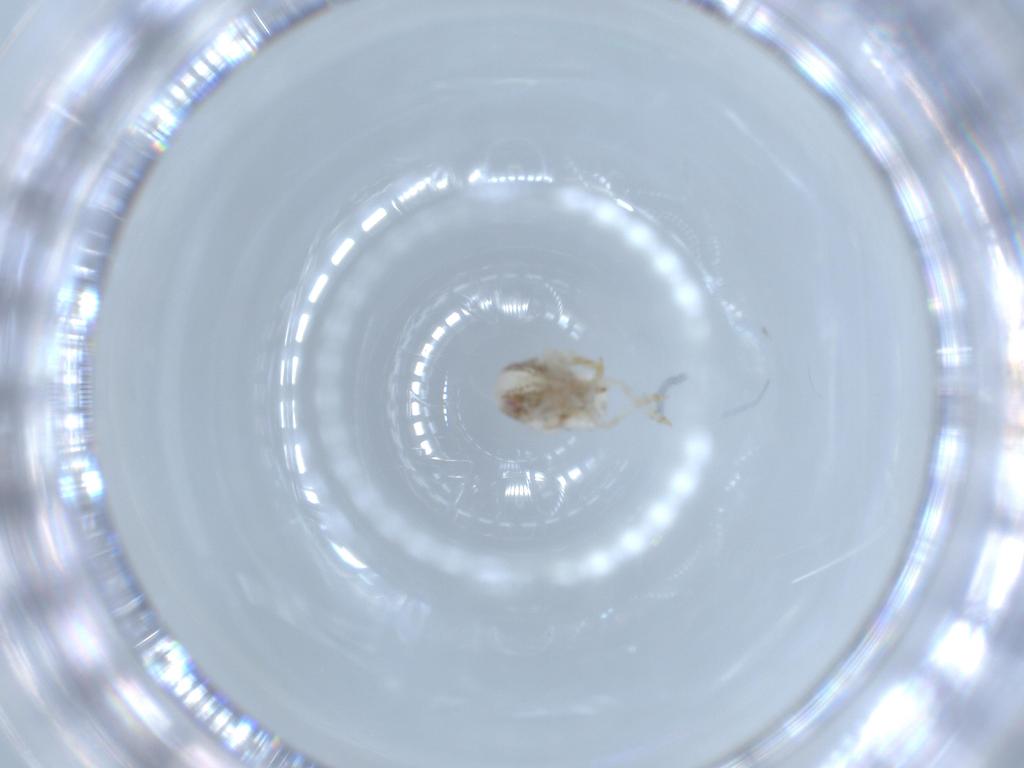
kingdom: Animalia
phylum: Arthropoda
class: Insecta
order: Hemiptera
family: Acanaloniidae
